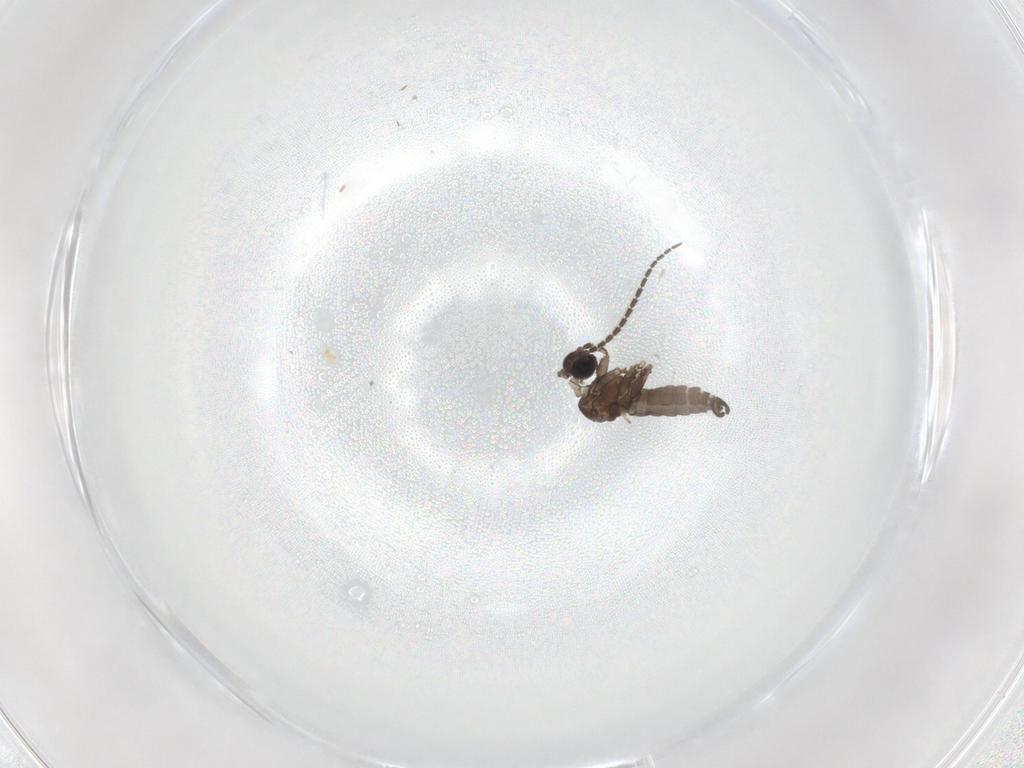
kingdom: Animalia
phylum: Arthropoda
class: Insecta
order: Diptera
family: Sciaridae
